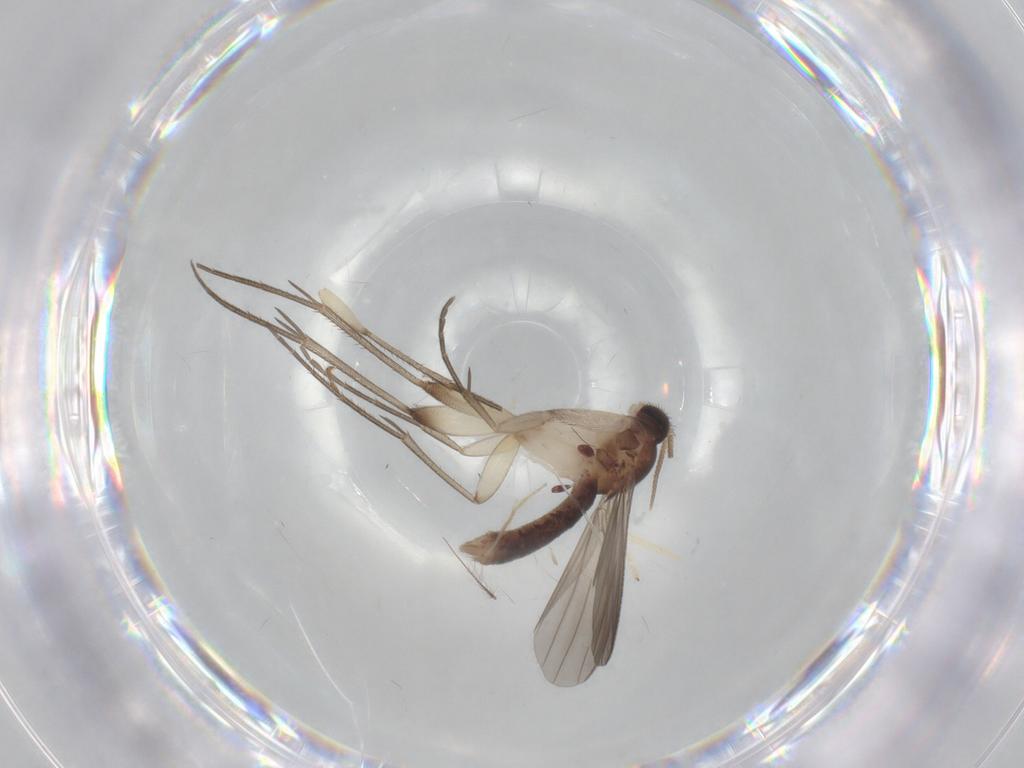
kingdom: Animalia
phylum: Arthropoda
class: Insecta
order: Diptera
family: Mycetophilidae
